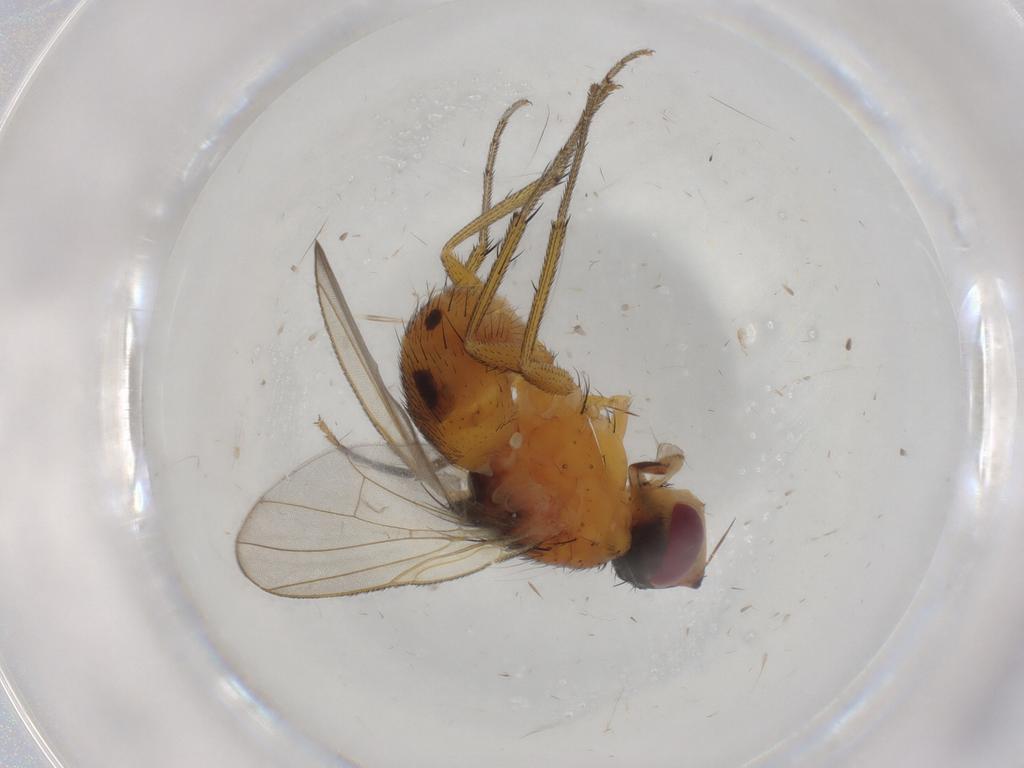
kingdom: Animalia
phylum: Arthropoda
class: Insecta
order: Diptera
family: Muscidae
